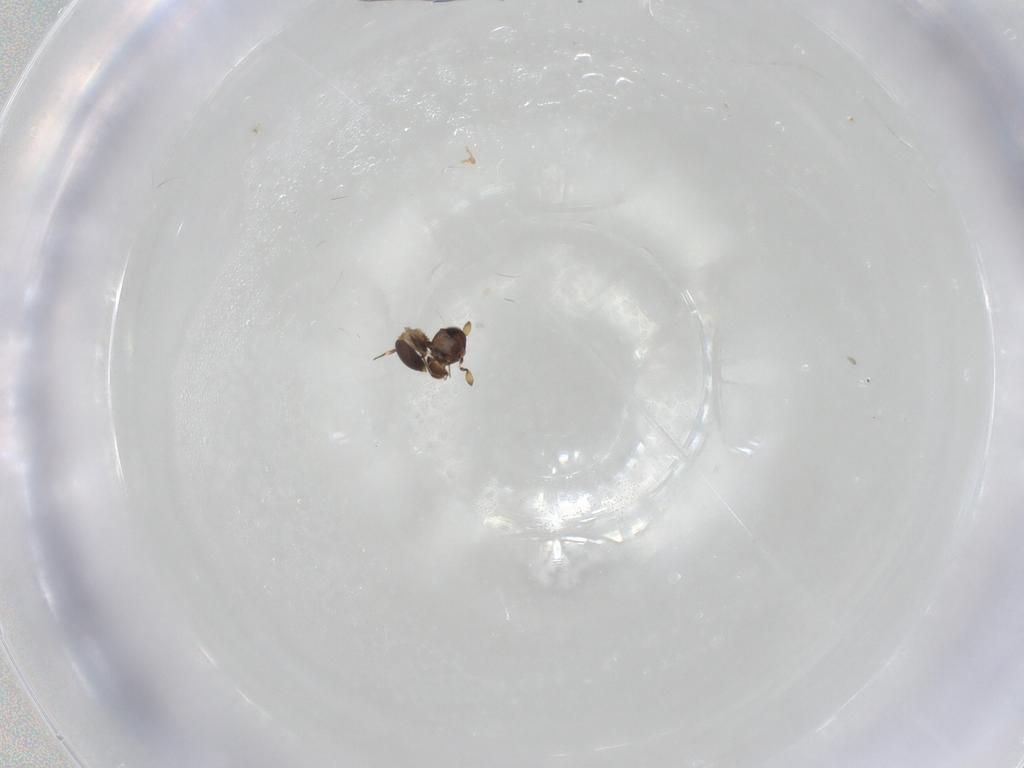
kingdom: Animalia
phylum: Arthropoda
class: Insecta
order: Hymenoptera
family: Scelionidae
